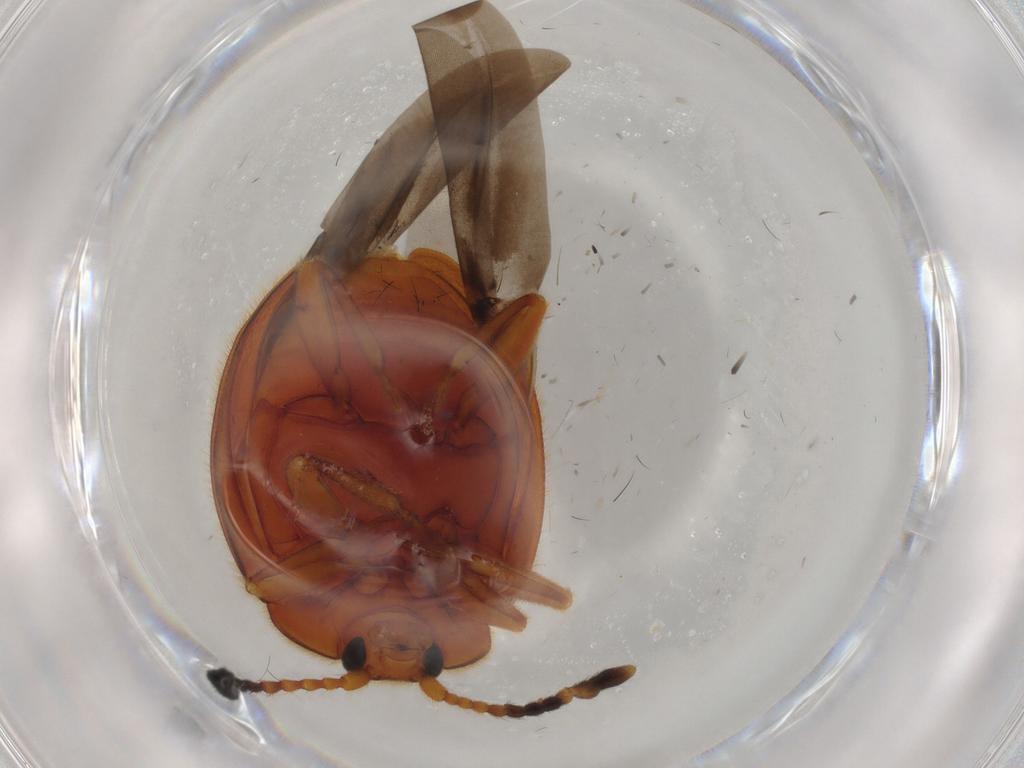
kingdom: Animalia
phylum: Arthropoda
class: Insecta
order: Coleoptera
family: Endomychidae
